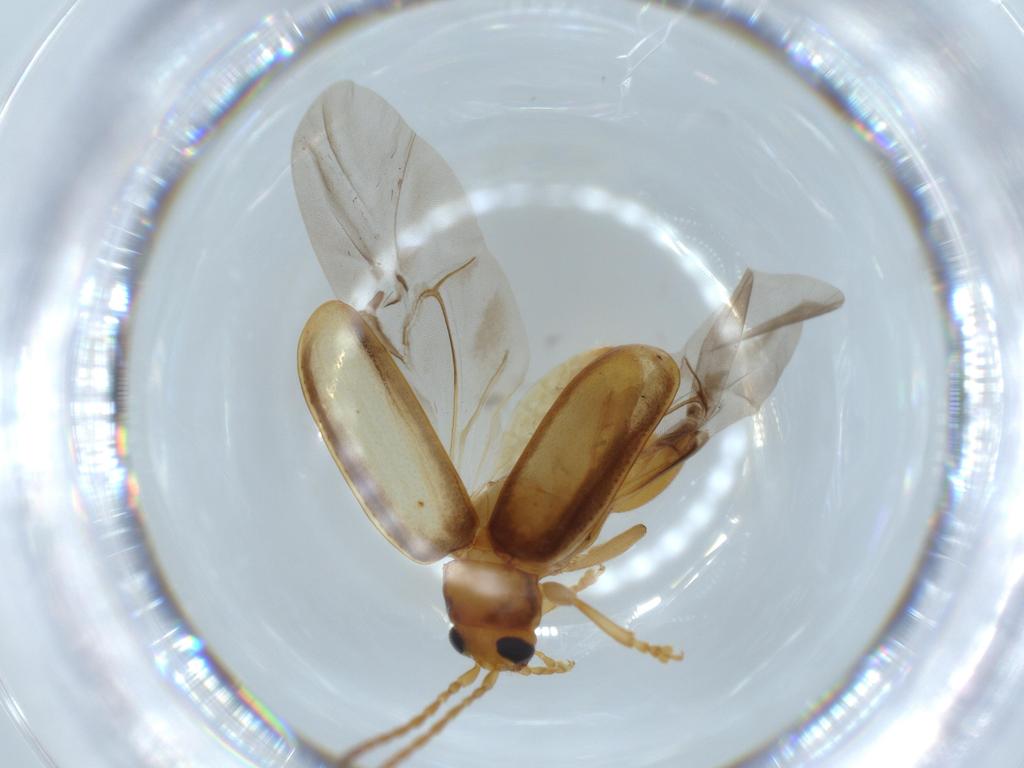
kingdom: Animalia
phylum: Arthropoda
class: Insecta
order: Coleoptera
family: Chrysomelidae
